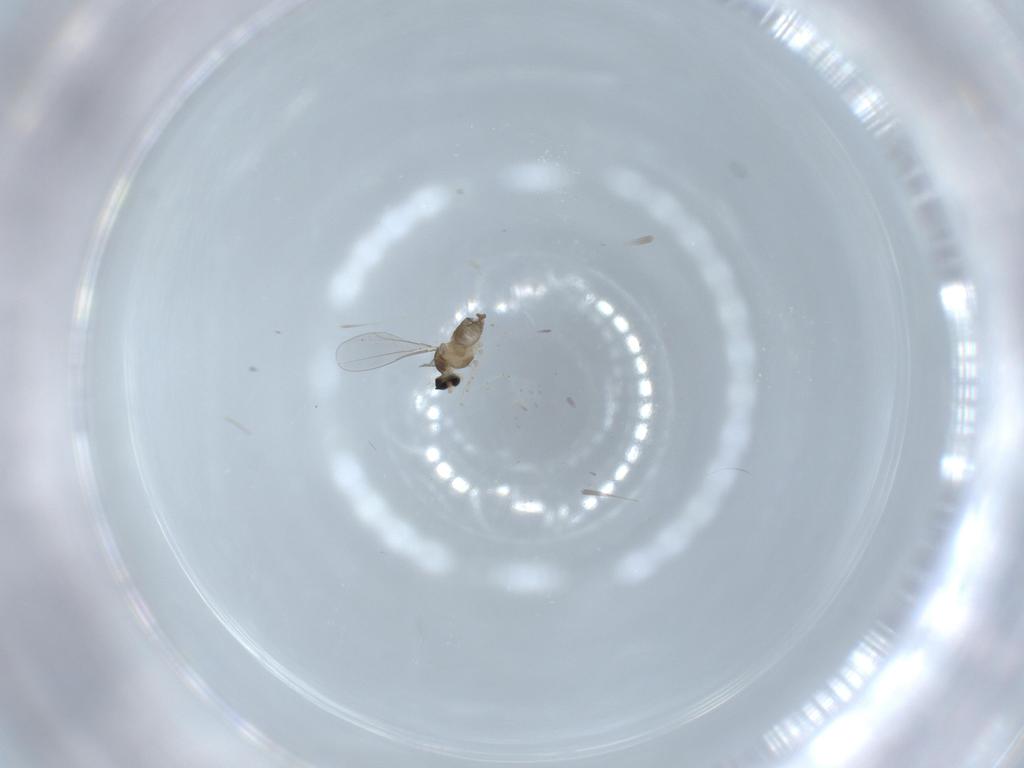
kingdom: Animalia
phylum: Arthropoda
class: Insecta
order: Diptera
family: Cecidomyiidae
